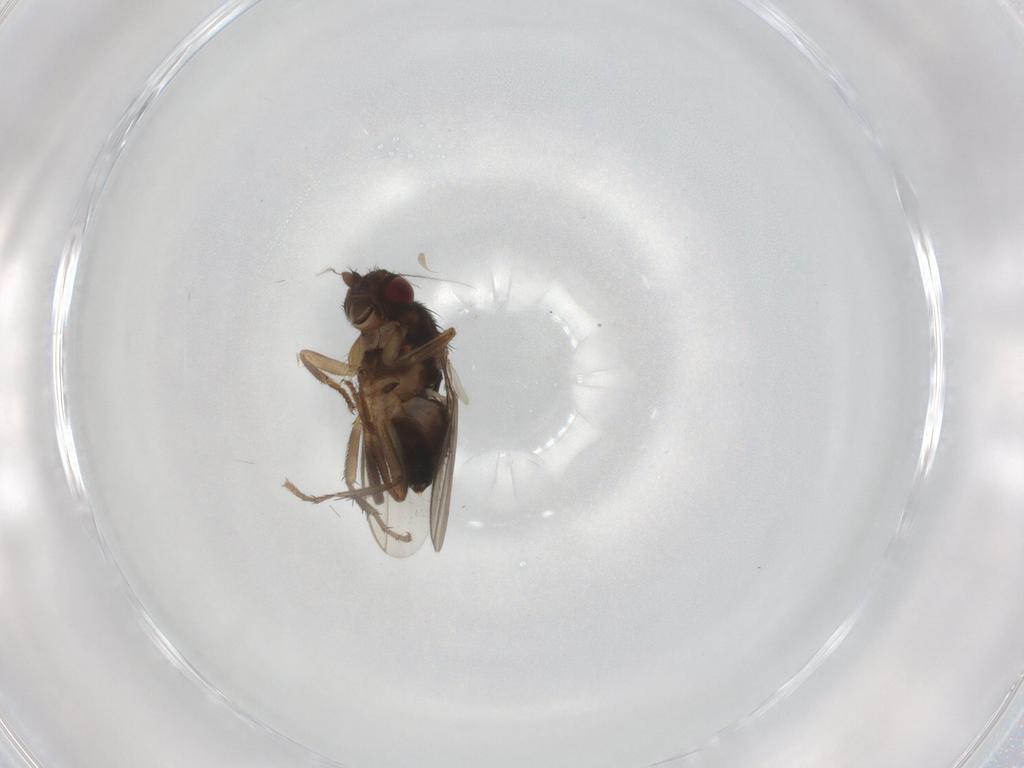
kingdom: Animalia
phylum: Arthropoda
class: Insecta
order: Diptera
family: Sphaeroceridae
